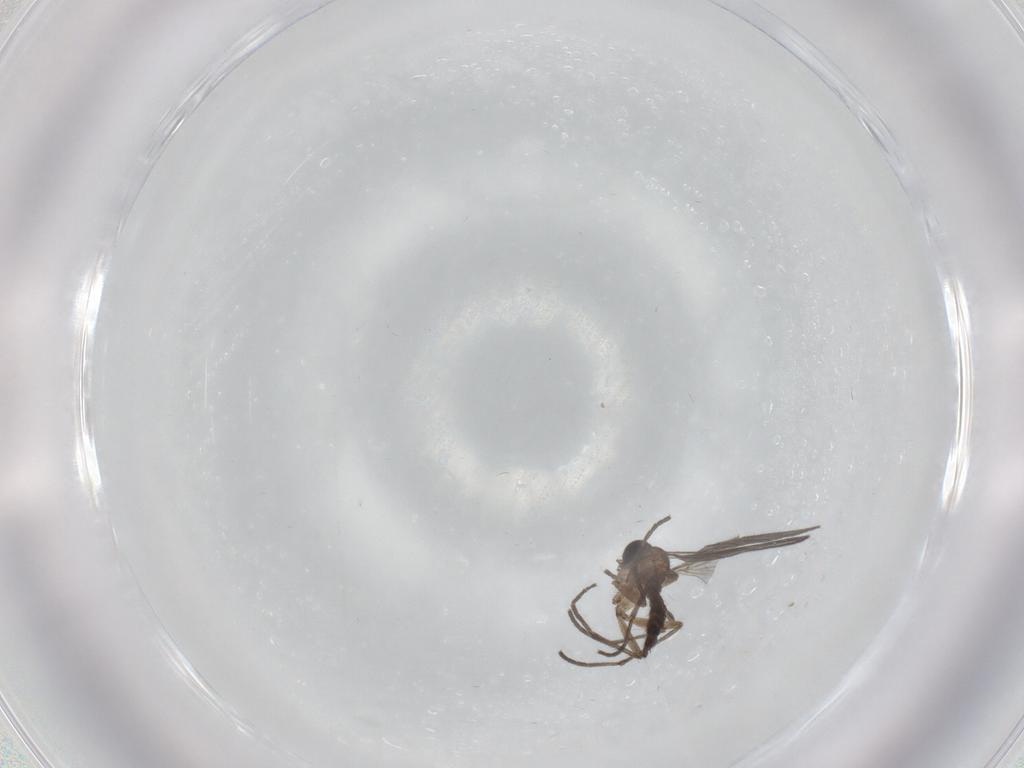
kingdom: Animalia
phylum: Arthropoda
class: Insecta
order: Diptera
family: Sciaridae
